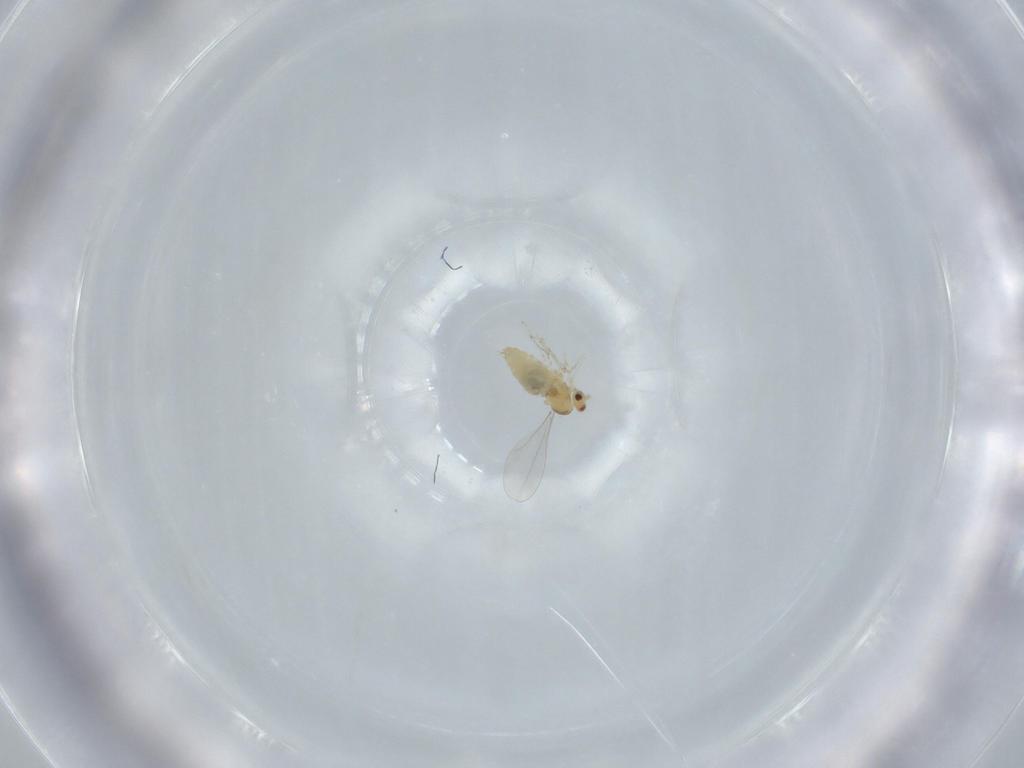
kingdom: Animalia
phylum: Arthropoda
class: Insecta
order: Diptera
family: Cecidomyiidae
